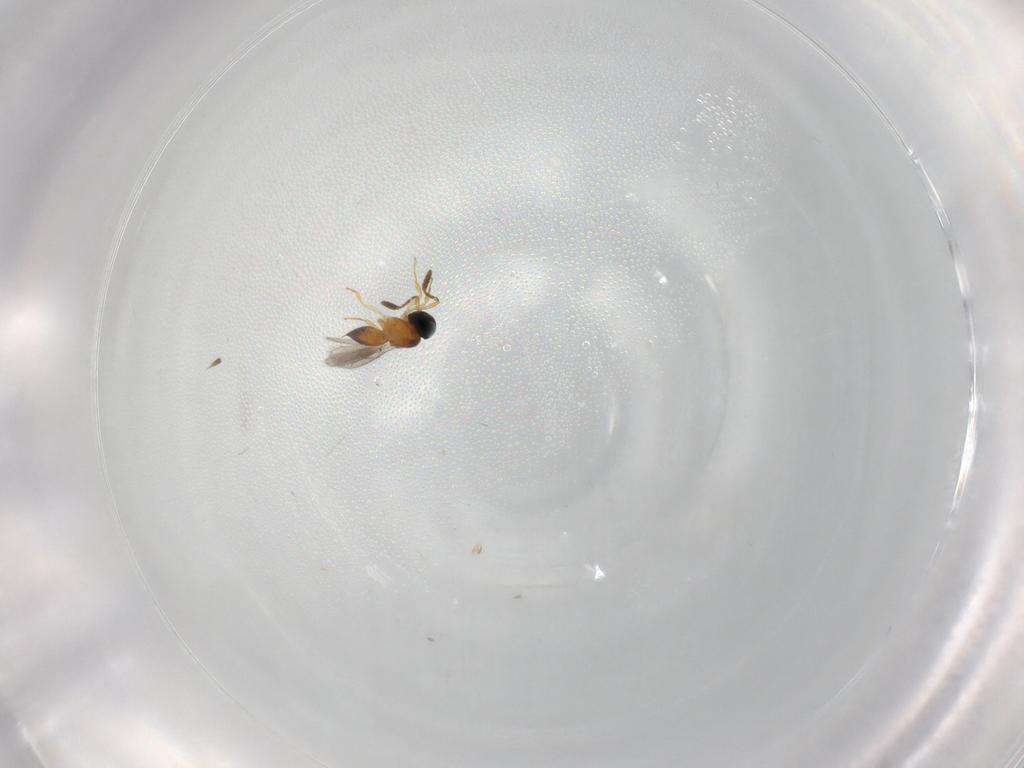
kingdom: Animalia
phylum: Arthropoda
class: Insecta
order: Hymenoptera
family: Scelionidae
